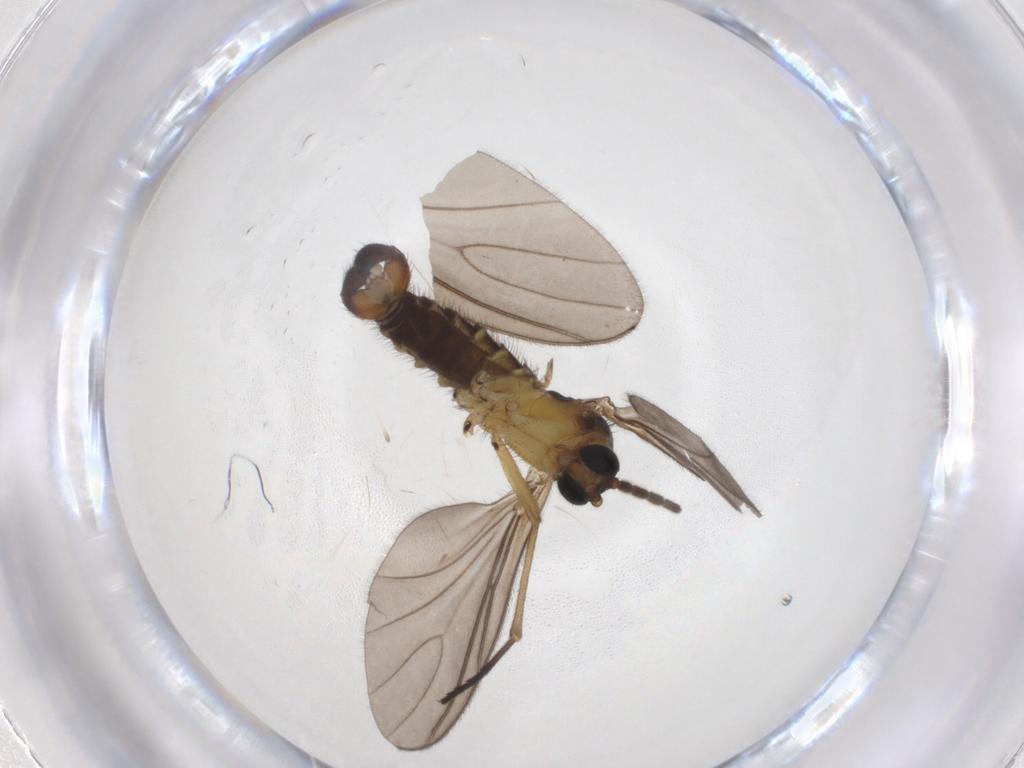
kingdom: Animalia
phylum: Arthropoda
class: Insecta
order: Diptera
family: Sciaridae
